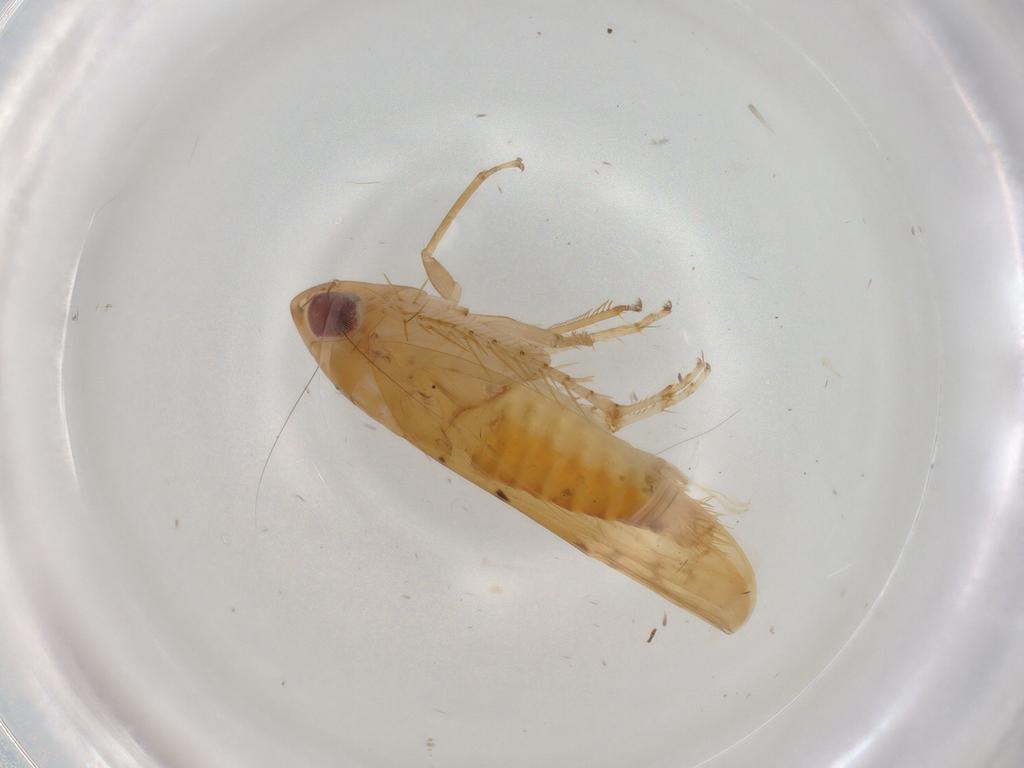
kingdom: Animalia
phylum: Arthropoda
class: Insecta
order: Hemiptera
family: Cicadellidae
